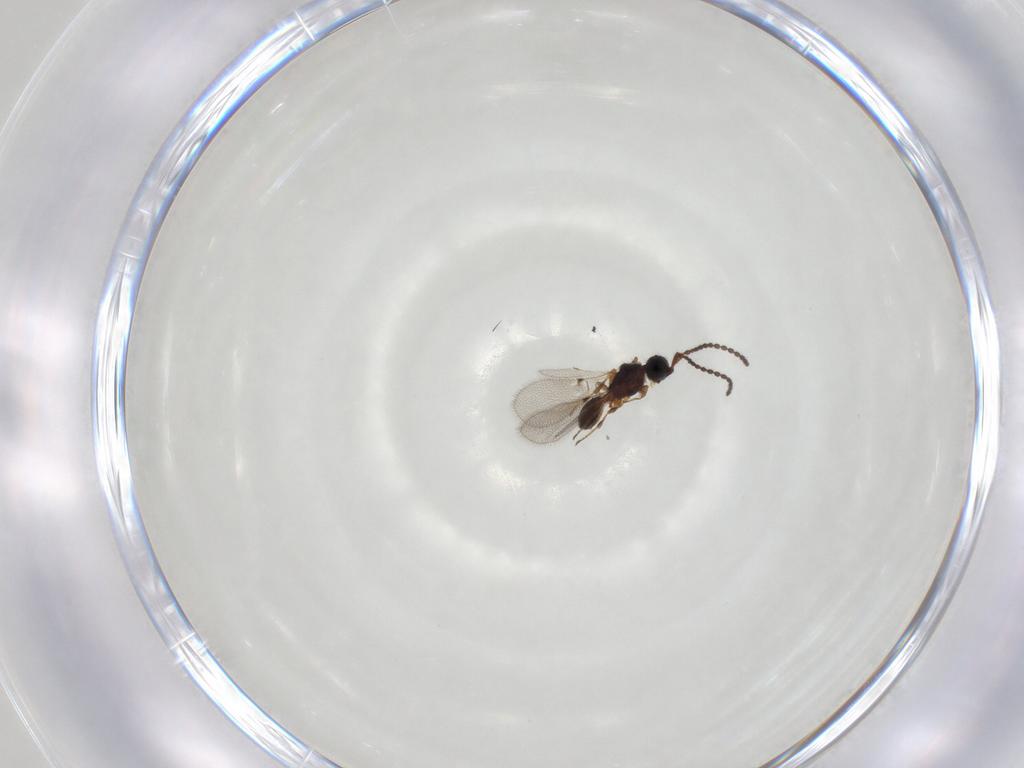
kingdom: Animalia
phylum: Arthropoda
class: Insecta
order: Hymenoptera
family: Diapriidae
